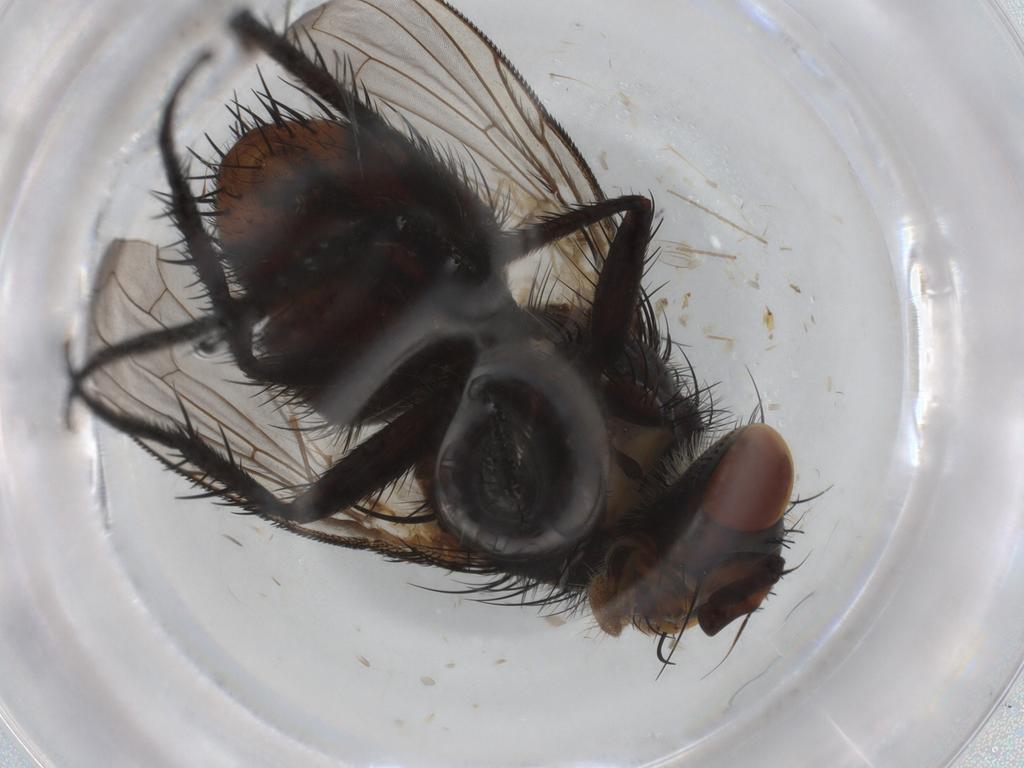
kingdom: Animalia
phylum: Arthropoda
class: Insecta
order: Diptera
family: Tachinidae
